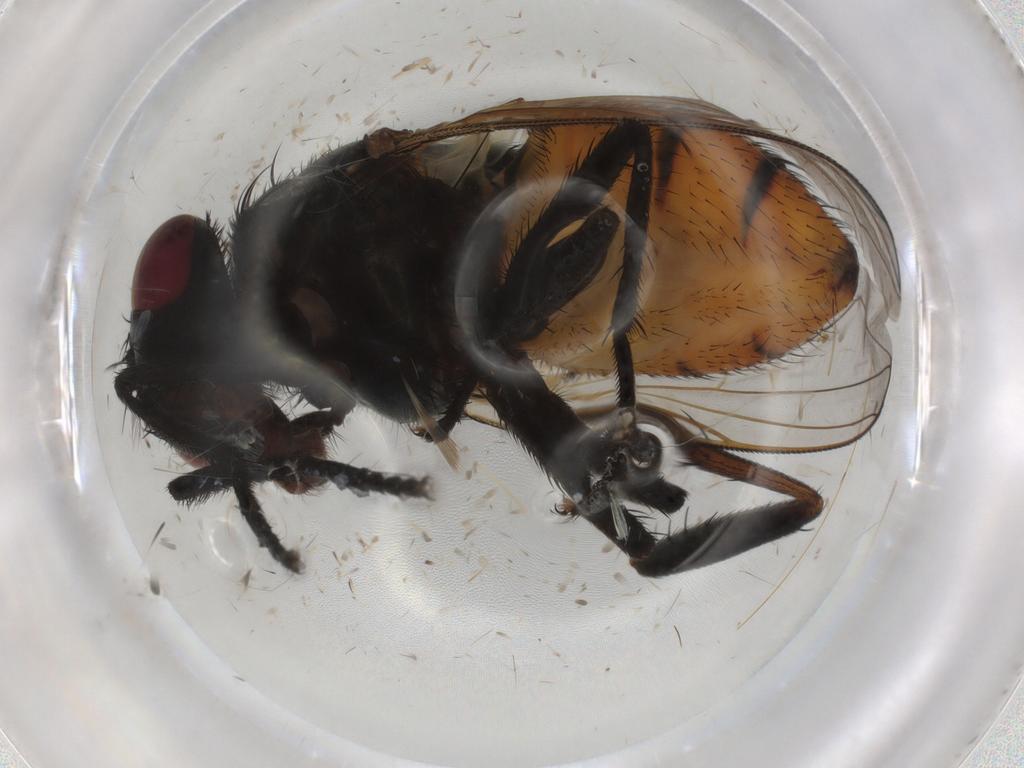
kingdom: Animalia
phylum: Arthropoda
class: Insecta
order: Diptera
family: Calliphoridae
